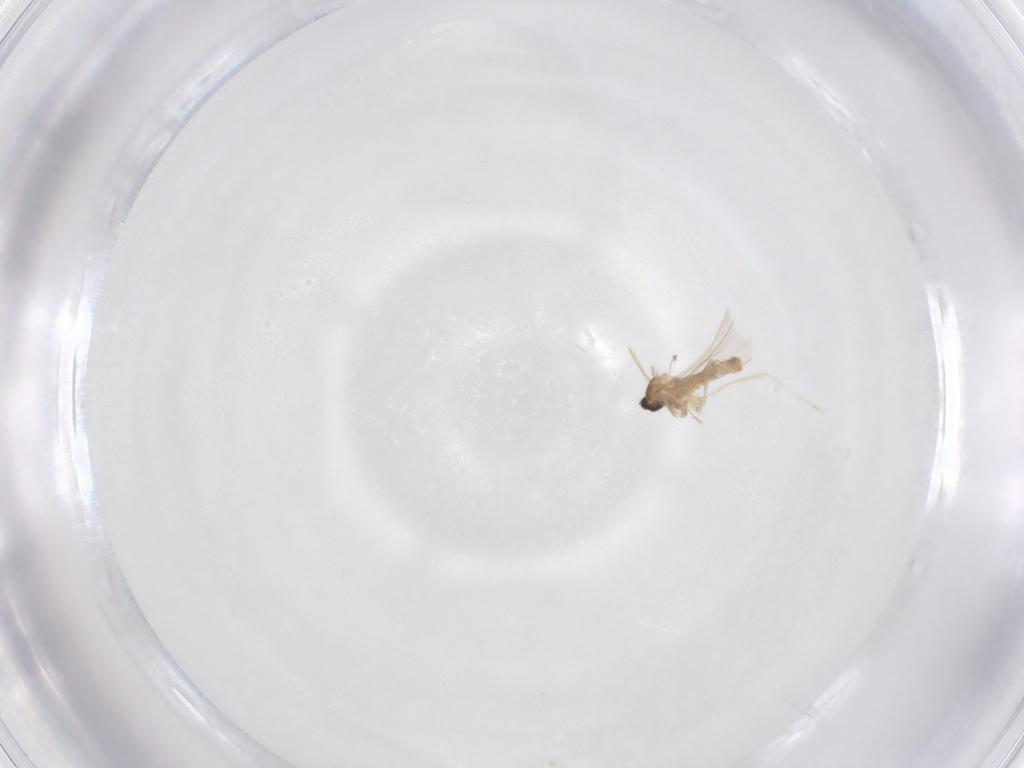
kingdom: Animalia
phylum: Arthropoda
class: Insecta
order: Diptera
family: Cecidomyiidae
